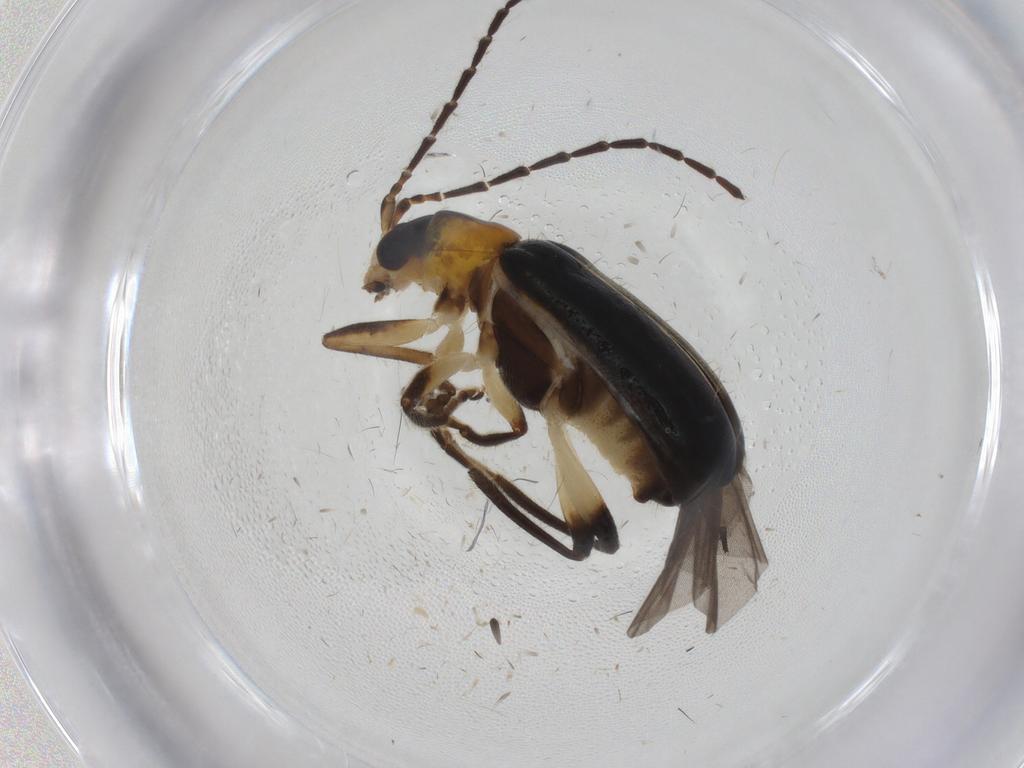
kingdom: Animalia
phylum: Arthropoda
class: Insecta
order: Coleoptera
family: Chrysomelidae
